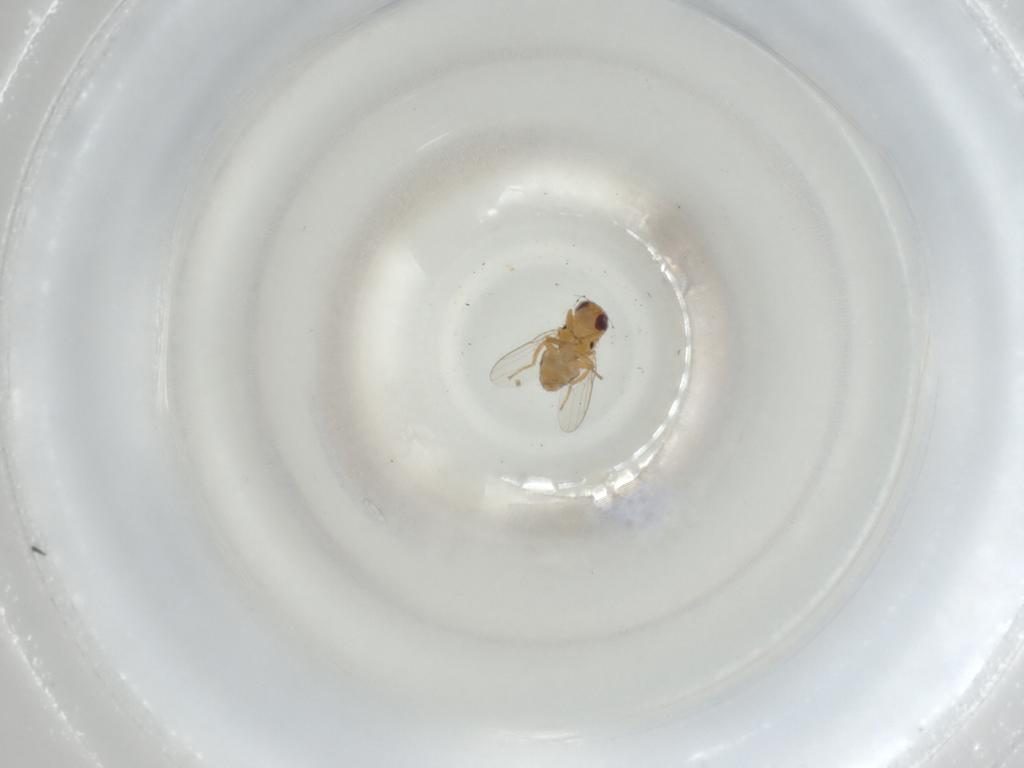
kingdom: Animalia
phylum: Arthropoda
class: Insecta
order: Diptera
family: Chloropidae
